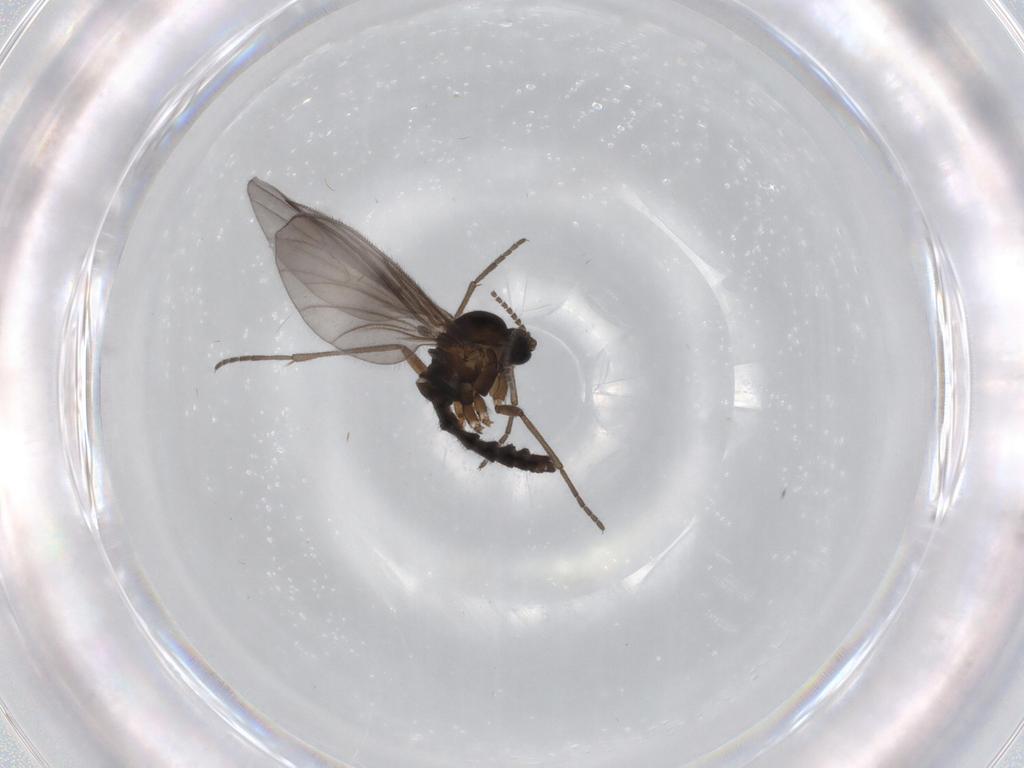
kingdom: Animalia
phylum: Arthropoda
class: Insecta
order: Diptera
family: Sciaridae
